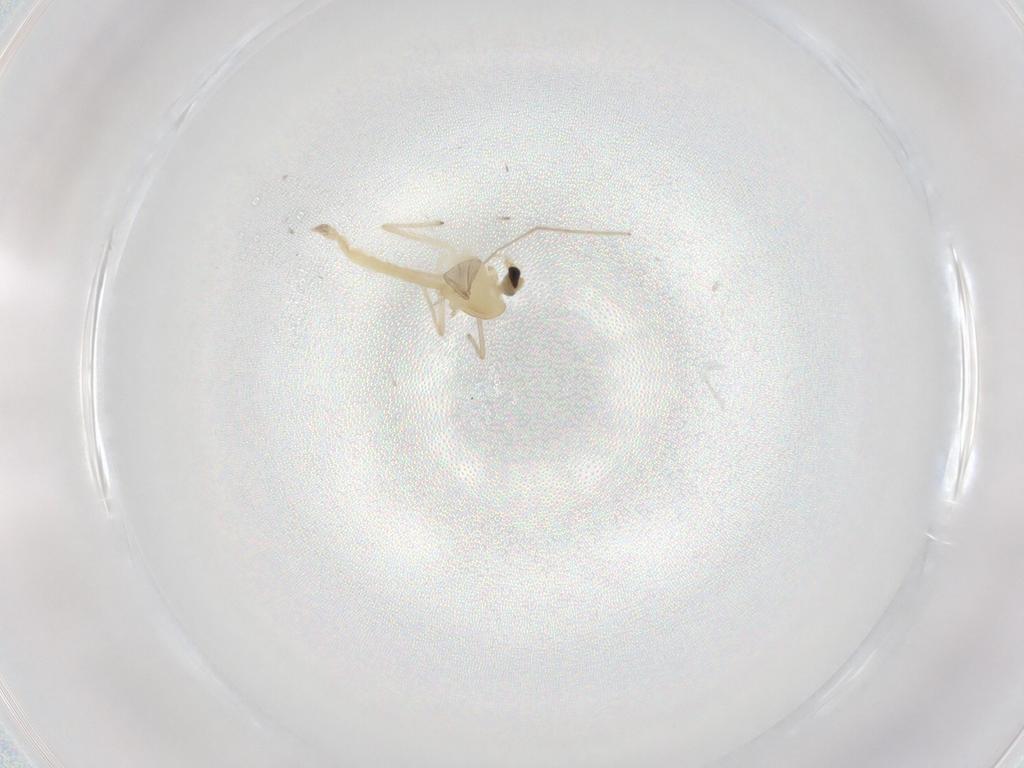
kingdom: Animalia
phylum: Arthropoda
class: Insecta
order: Diptera
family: Chironomidae
